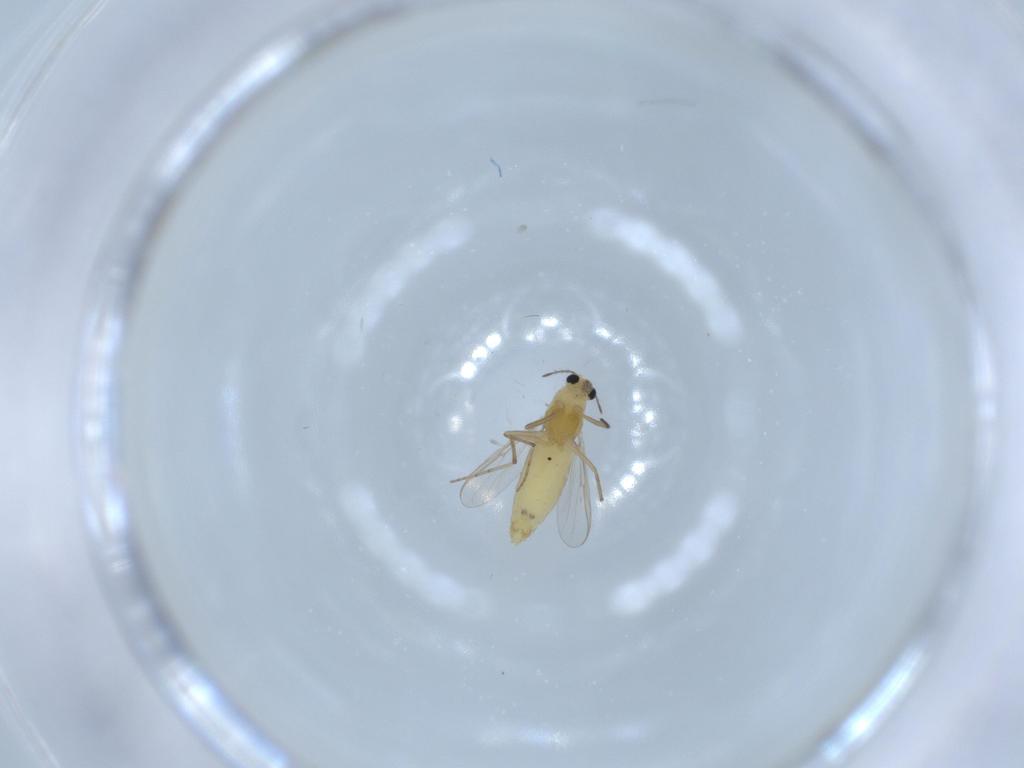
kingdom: Animalia
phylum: Arthropoda
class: Insecta
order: Diptera
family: Chironomidae
